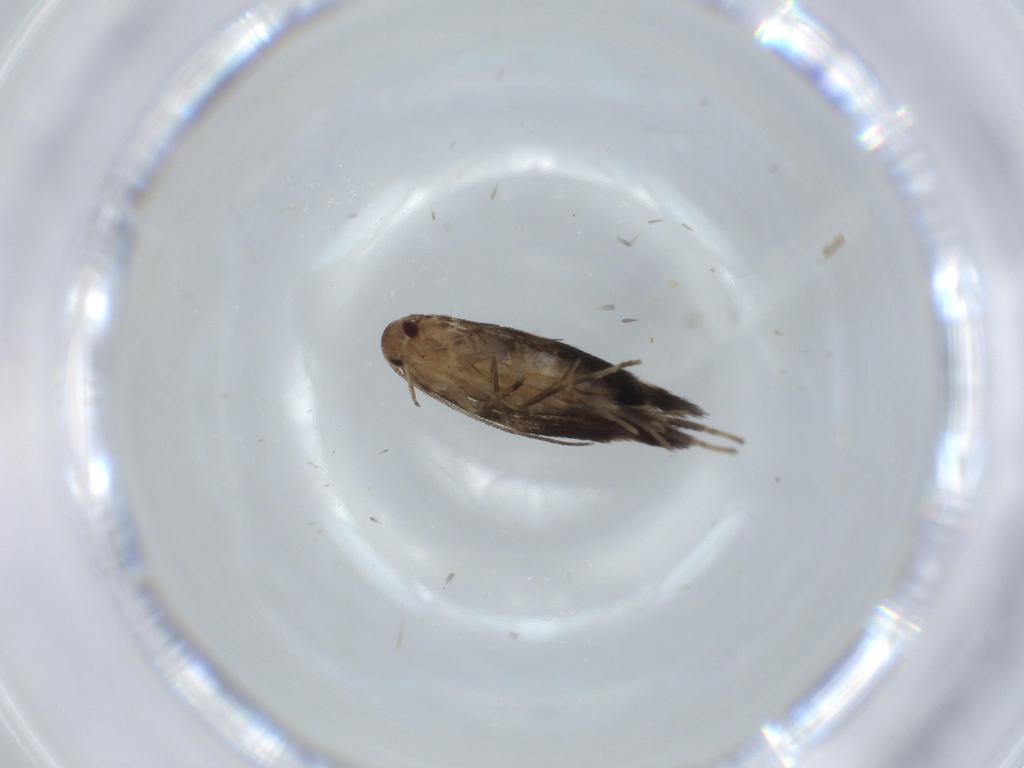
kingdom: Animalia
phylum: Arthropoda
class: Insecta
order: Lepidoptera
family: Cosmopterigidae
